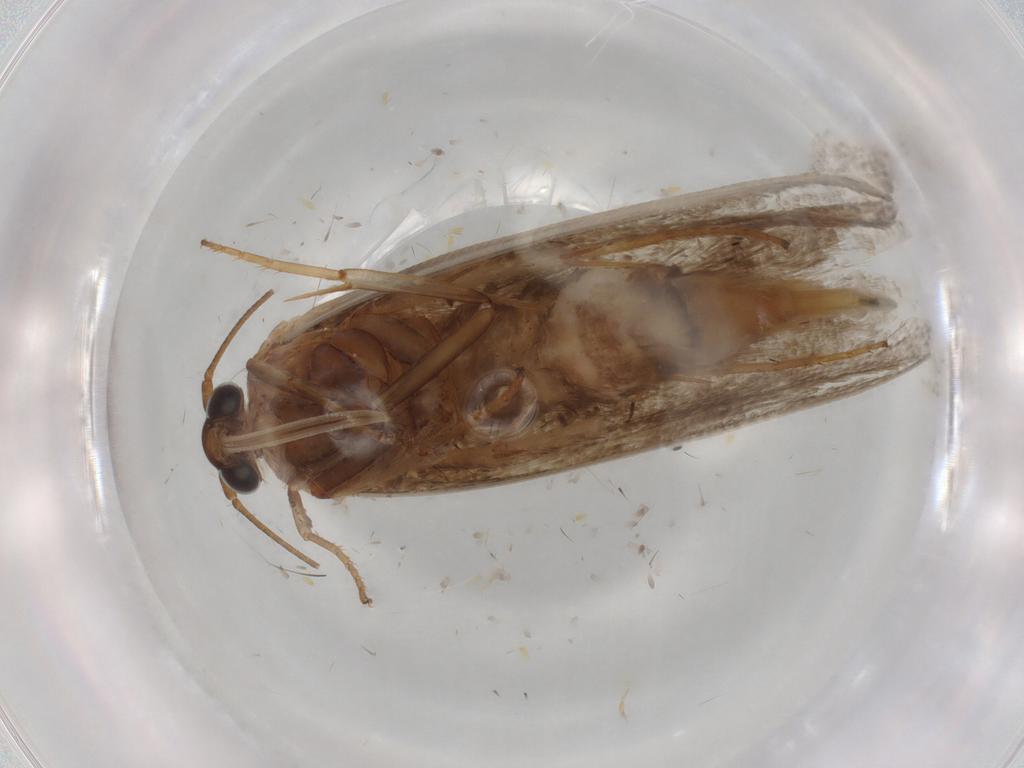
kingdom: Animalia
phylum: Arthropoda
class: Insecta
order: Lepidoptera
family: Oecophoridae
